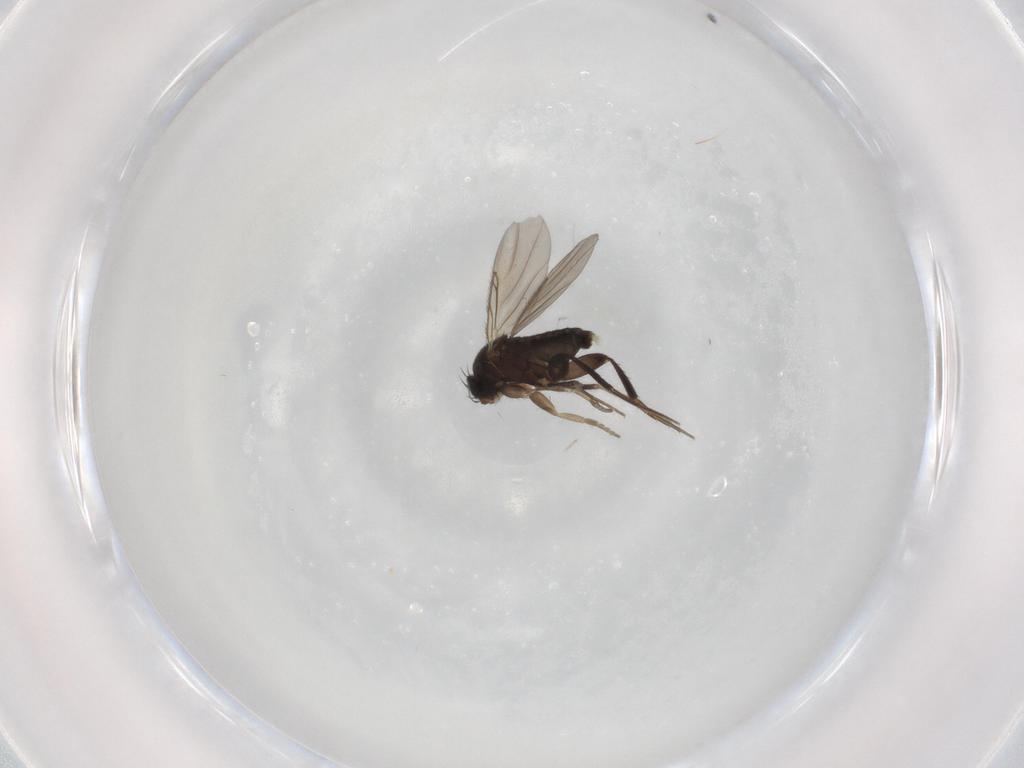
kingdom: Animalia
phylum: Arthropoda
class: Insecta
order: Diptera
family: Phoridae
